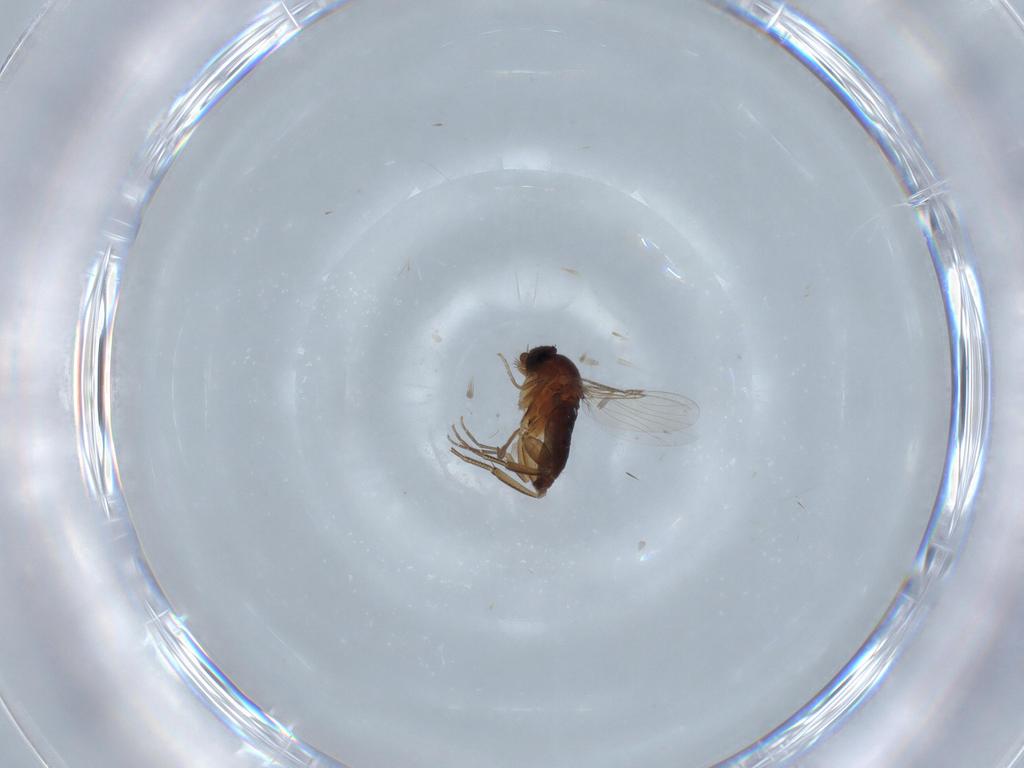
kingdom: Animalia
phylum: Arthropoda
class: Insecta
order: Diptera
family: Phoridae
